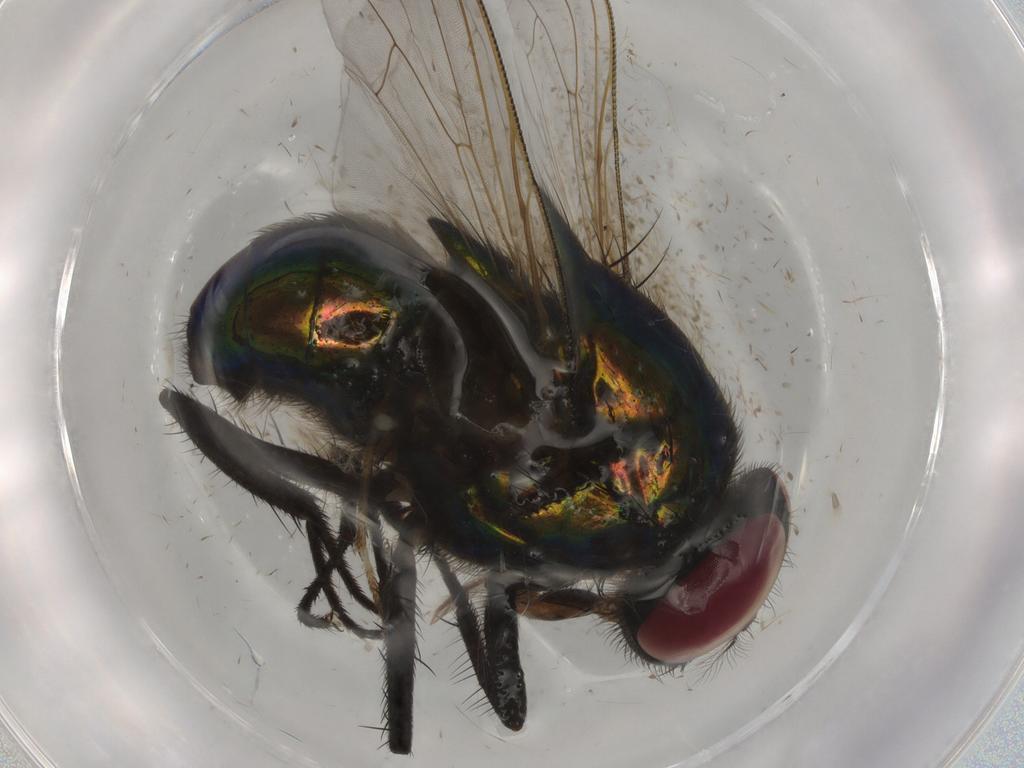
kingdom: Animalia
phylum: Arthropoda
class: Insecta
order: Diptera
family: Muscidae
